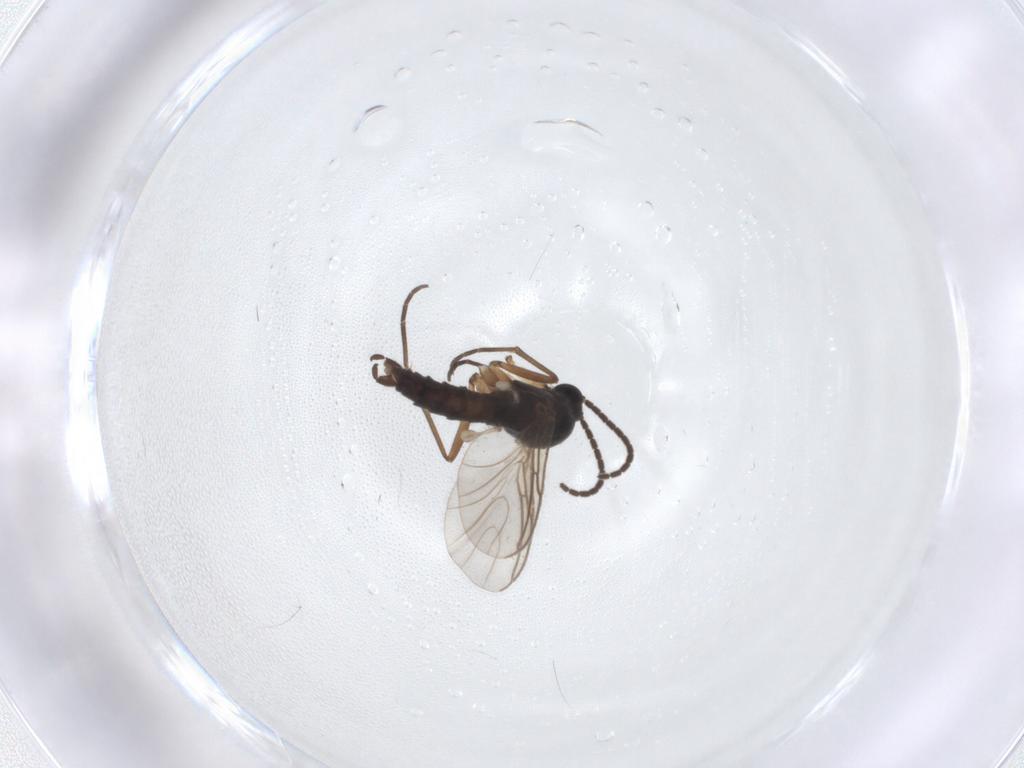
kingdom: Animalia
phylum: Arthropoda
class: Insecta
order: Diptera
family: Sciaridae
